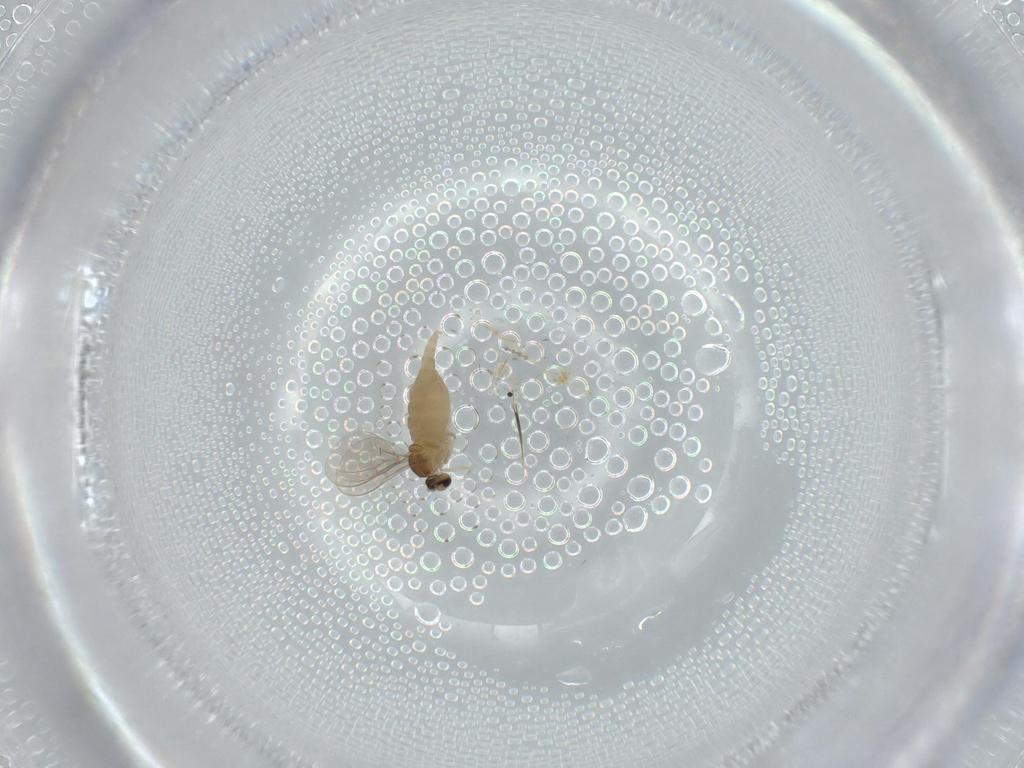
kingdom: Animalia
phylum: Arthropoda
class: Insecta
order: Diptera
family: Cecidomyiidae
